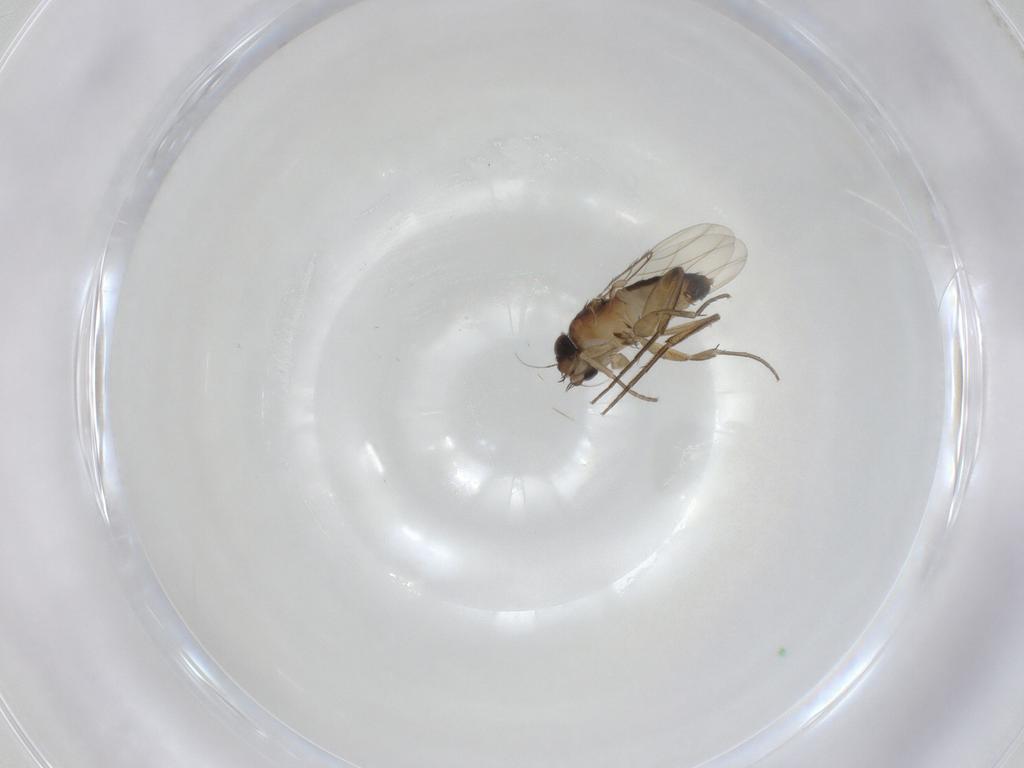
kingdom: Animalia
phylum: Arthropoda
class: Insecta
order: Diptera
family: Phoridae
